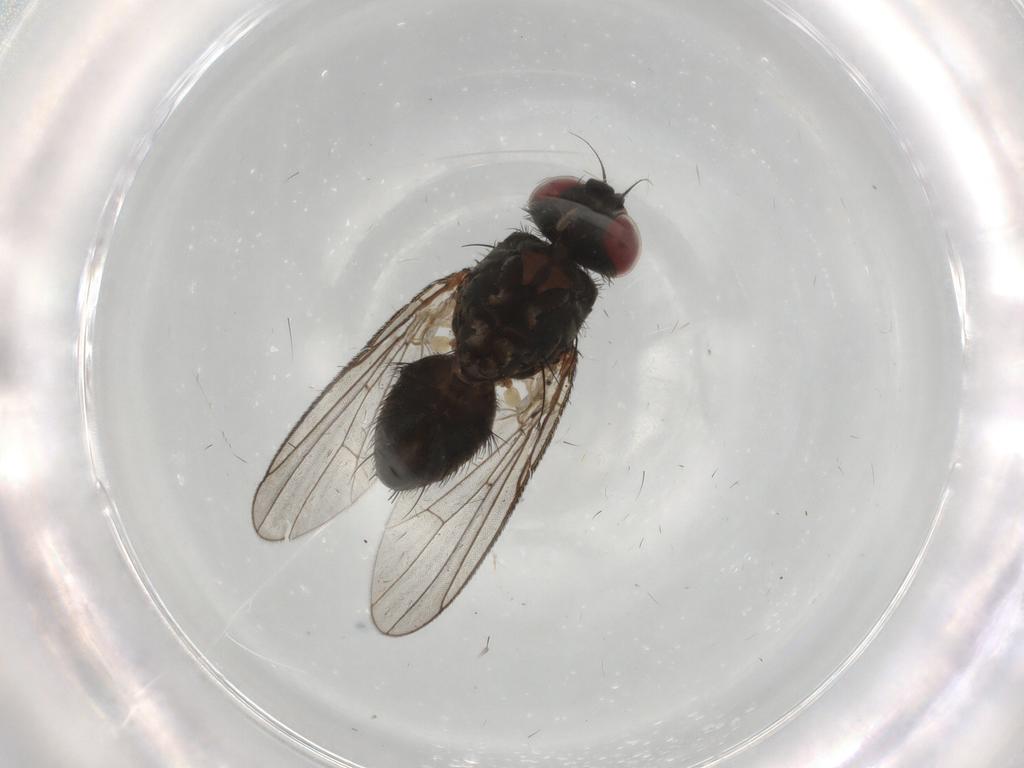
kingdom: Animalia
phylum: Arthropoda
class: Insecta
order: Diptera
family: Muscidae
